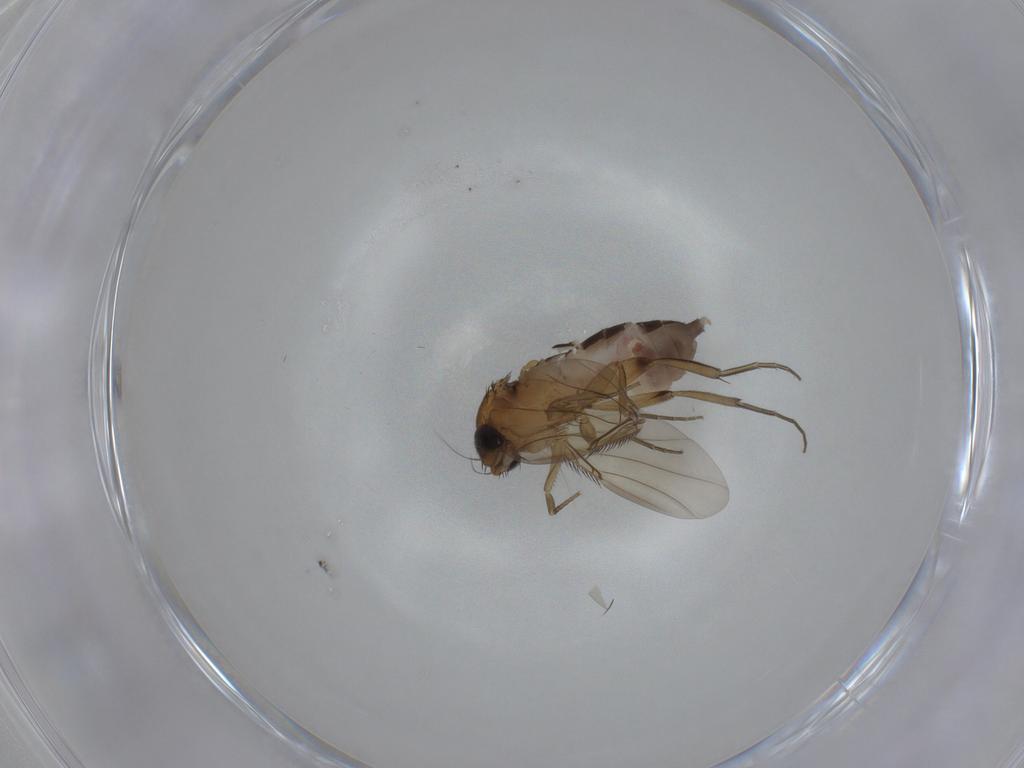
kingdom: Animalia
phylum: Arthropoda
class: Insecta
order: Diptera
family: Phoridae
